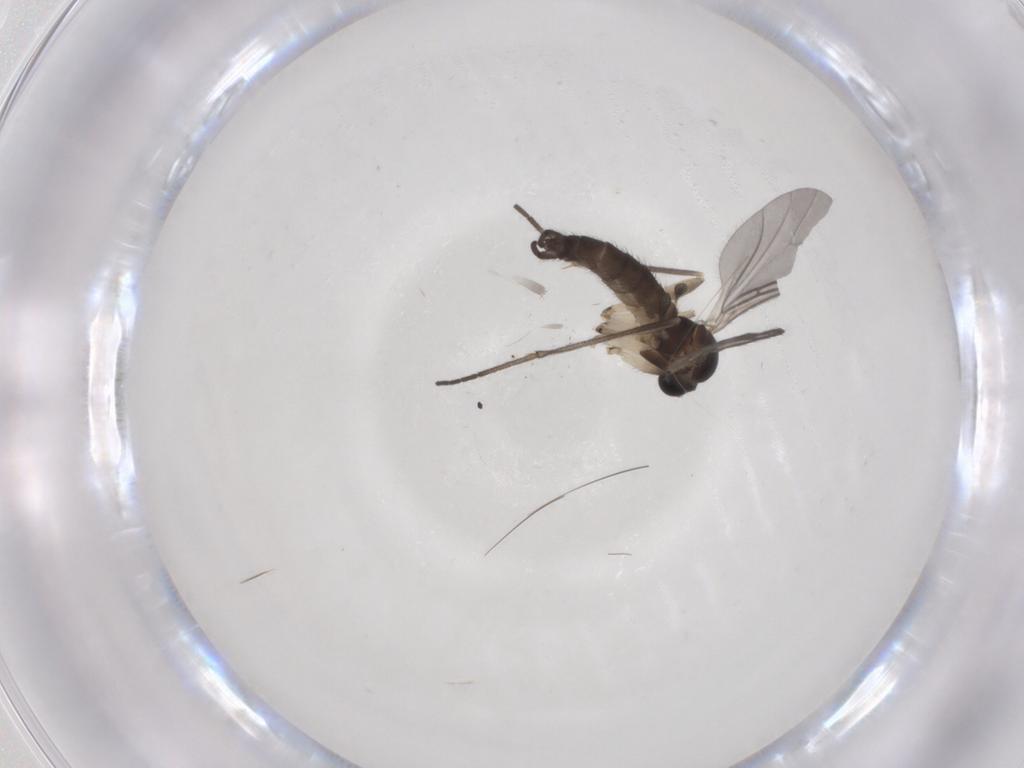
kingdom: Animalia
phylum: Arthropoda
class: Insecta
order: Diptera
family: Sciaridae
